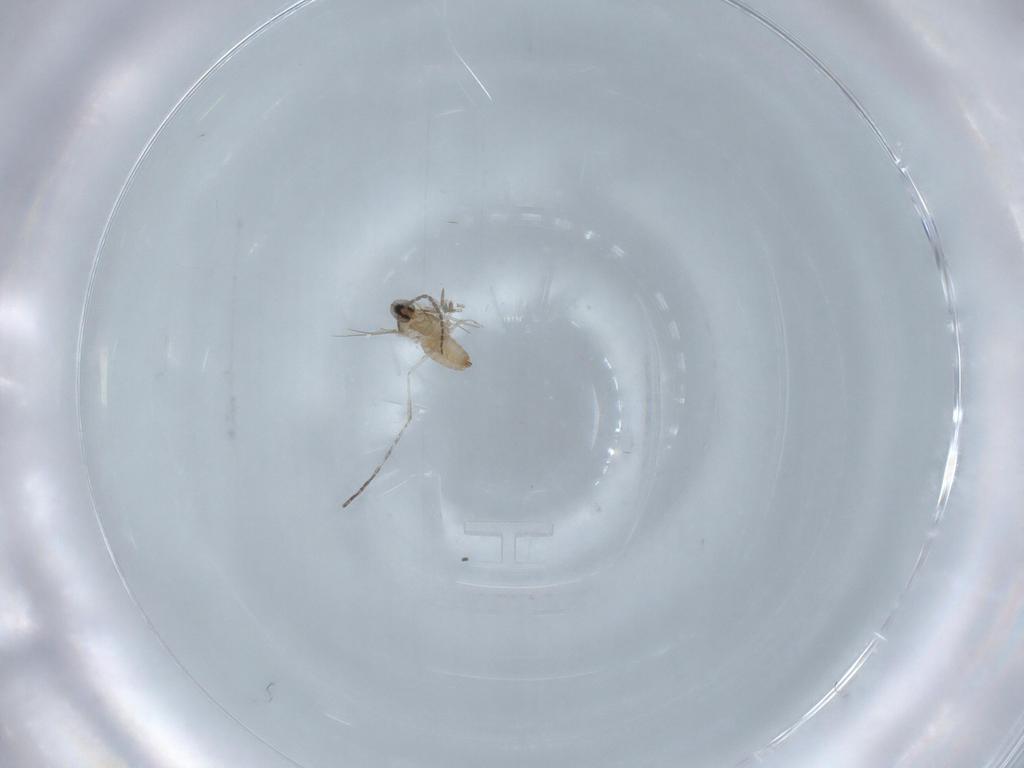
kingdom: Animalia
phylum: Arthropoda
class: Insecta
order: Diptera
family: Cecidomyiidae
